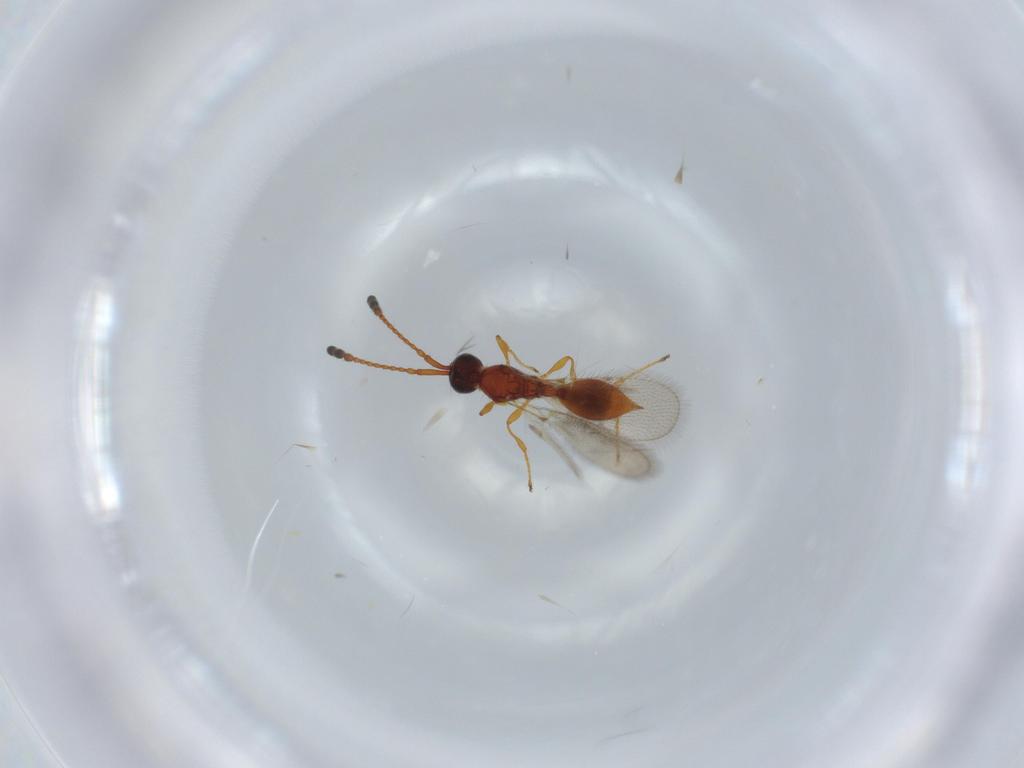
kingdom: Animalia
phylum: Arthropoda
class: Insecta
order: Hymenoptera
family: Diapriidae
